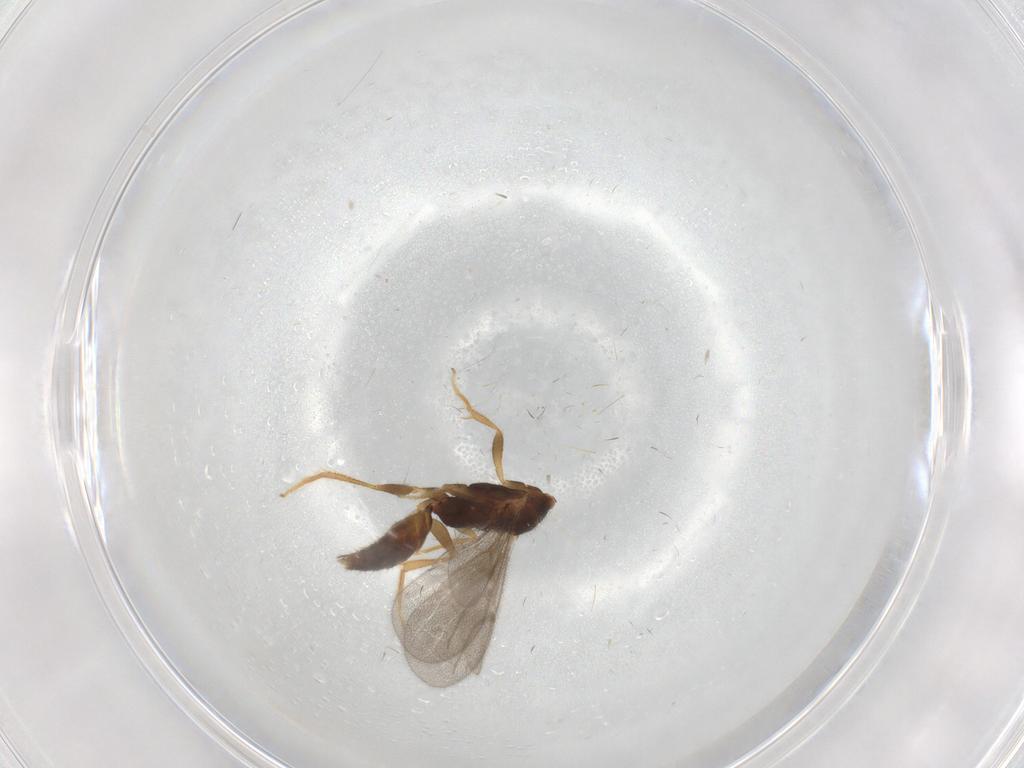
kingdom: Animalia
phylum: Arthropoda
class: Insecta
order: Hymenoptera
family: Bethylidae
